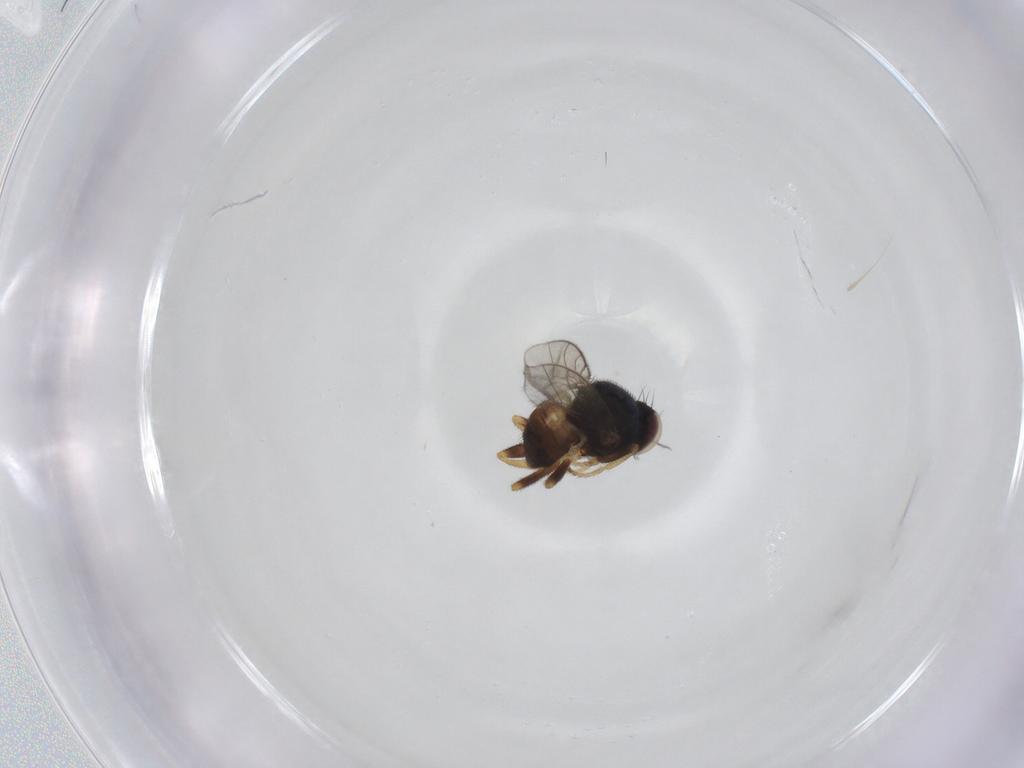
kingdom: Animalia
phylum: Arthropoda
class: Insecta
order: Diptera
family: Chloropidae
